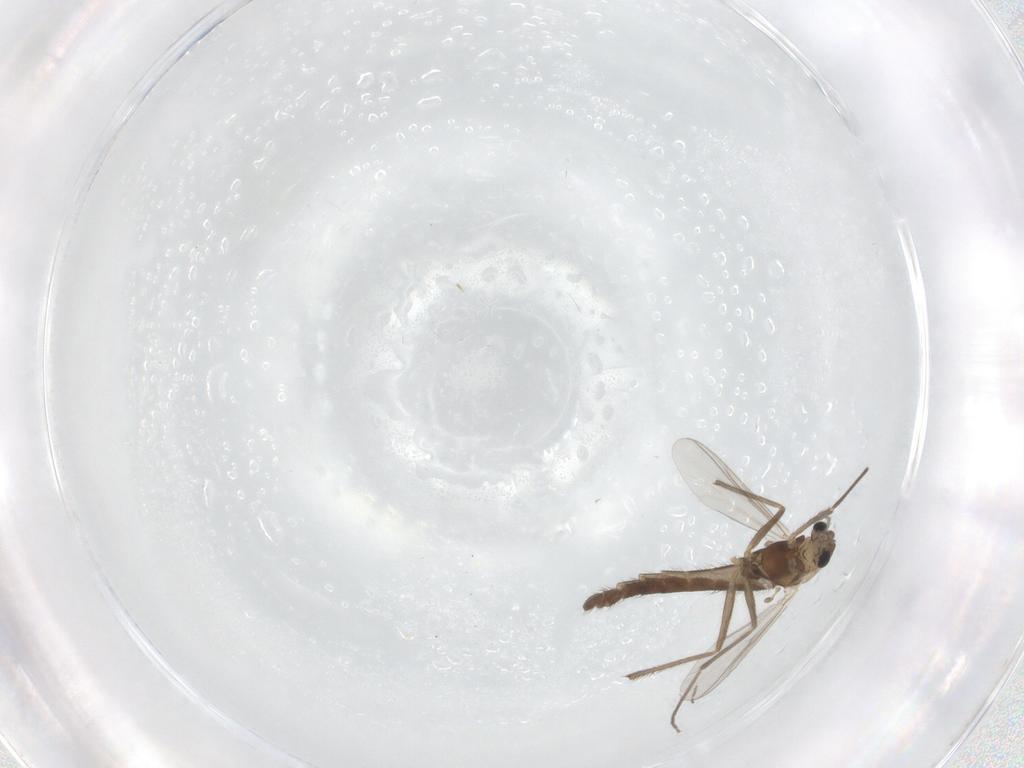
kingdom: Animalia
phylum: Arthropoda
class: Insecta
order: Diptera
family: Chironomidae
